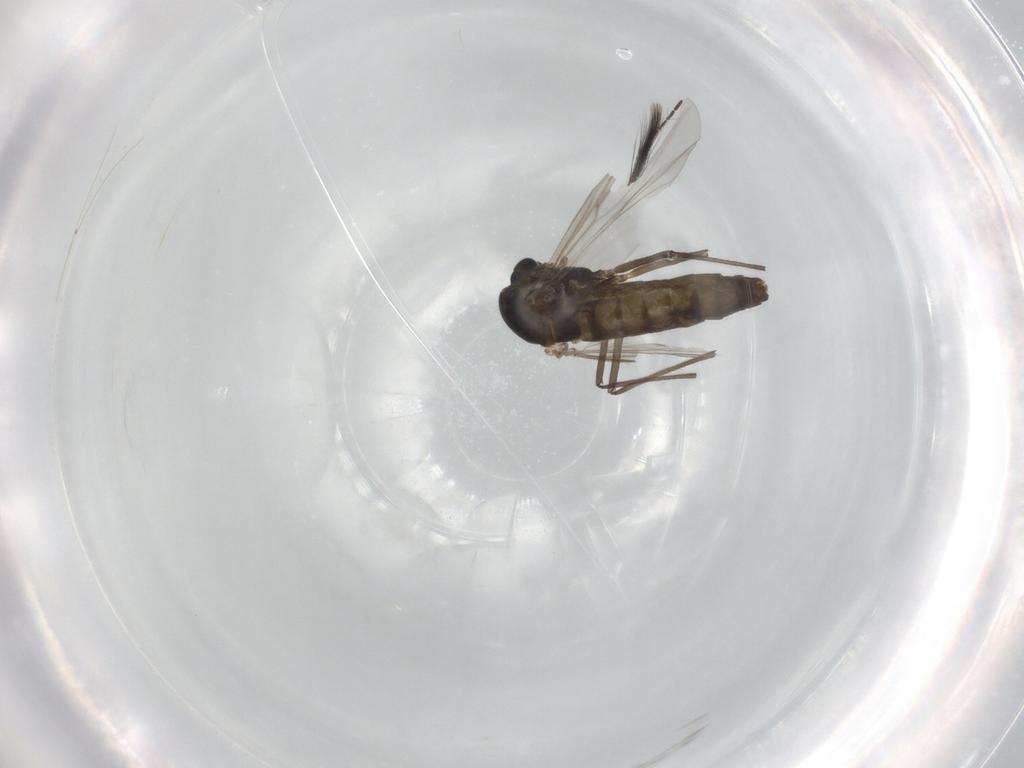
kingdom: Animalia
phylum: Arthropoda
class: Insecta
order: Diptera
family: Chironomidae
